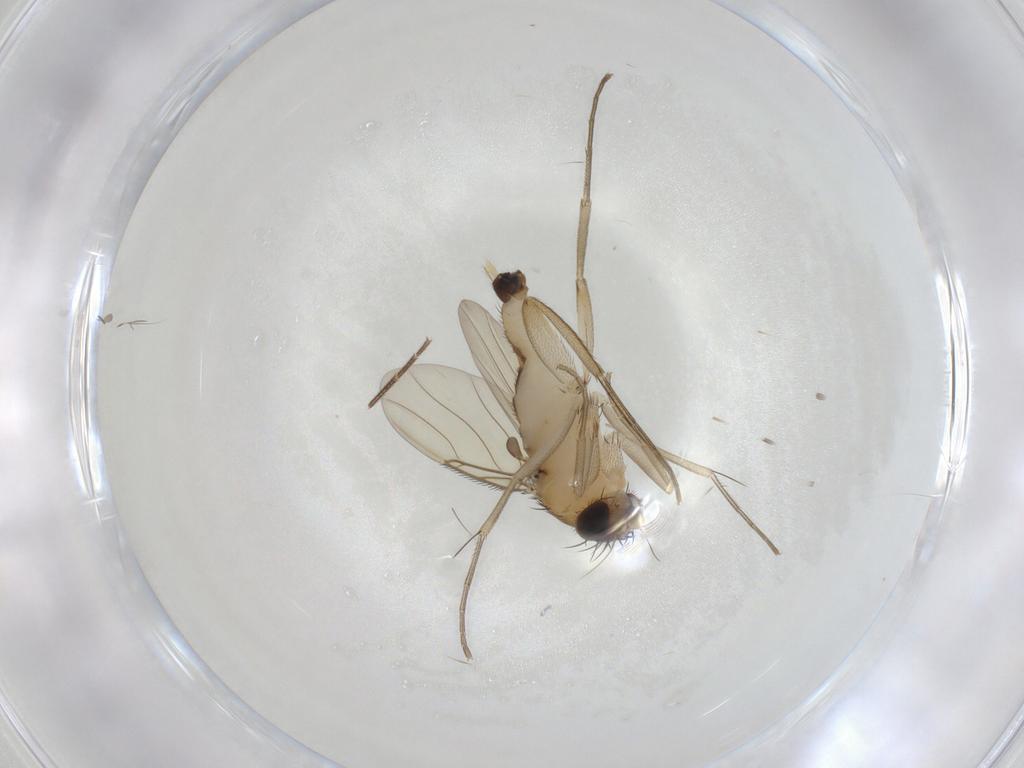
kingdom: Animalia
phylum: Arthropoda
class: Insecta
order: Diptera
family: Phoridae
